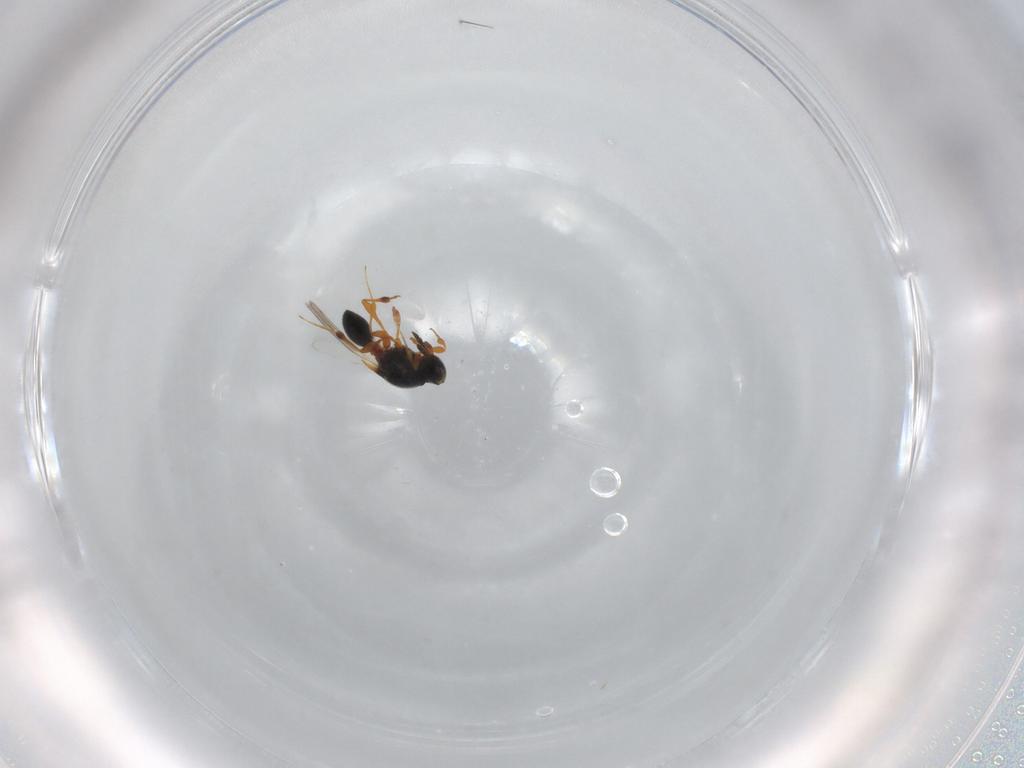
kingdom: Animalia
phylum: Arthropoda
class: Insecta
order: Hymenoptera
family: Platygastridae
